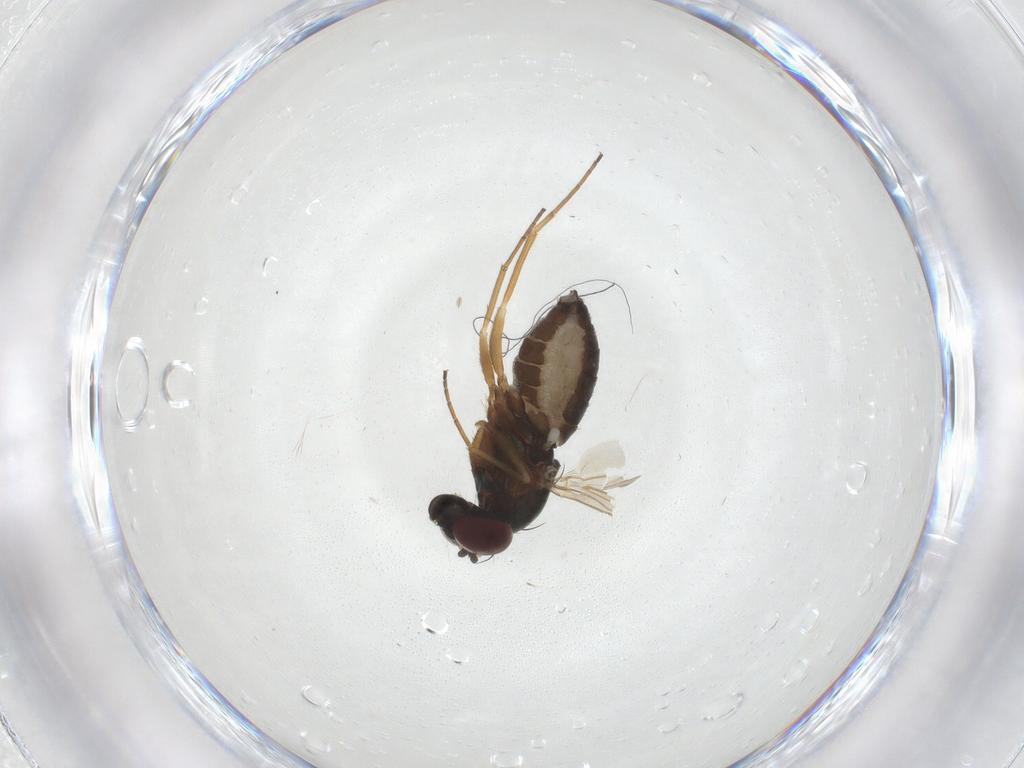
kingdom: Animalia
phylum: Arthropoda
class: Insecta
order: Diptera
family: Dolichopodidae
